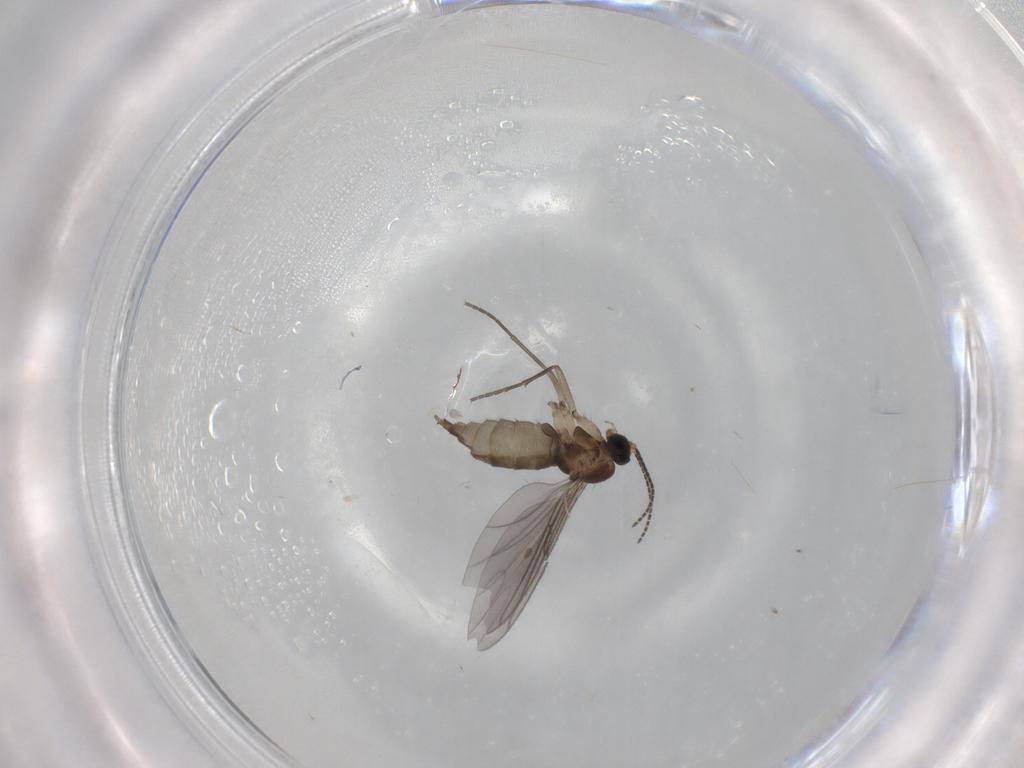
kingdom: Animalia
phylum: Arthropoda
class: Insecta
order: Diptera
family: Sciaridae
